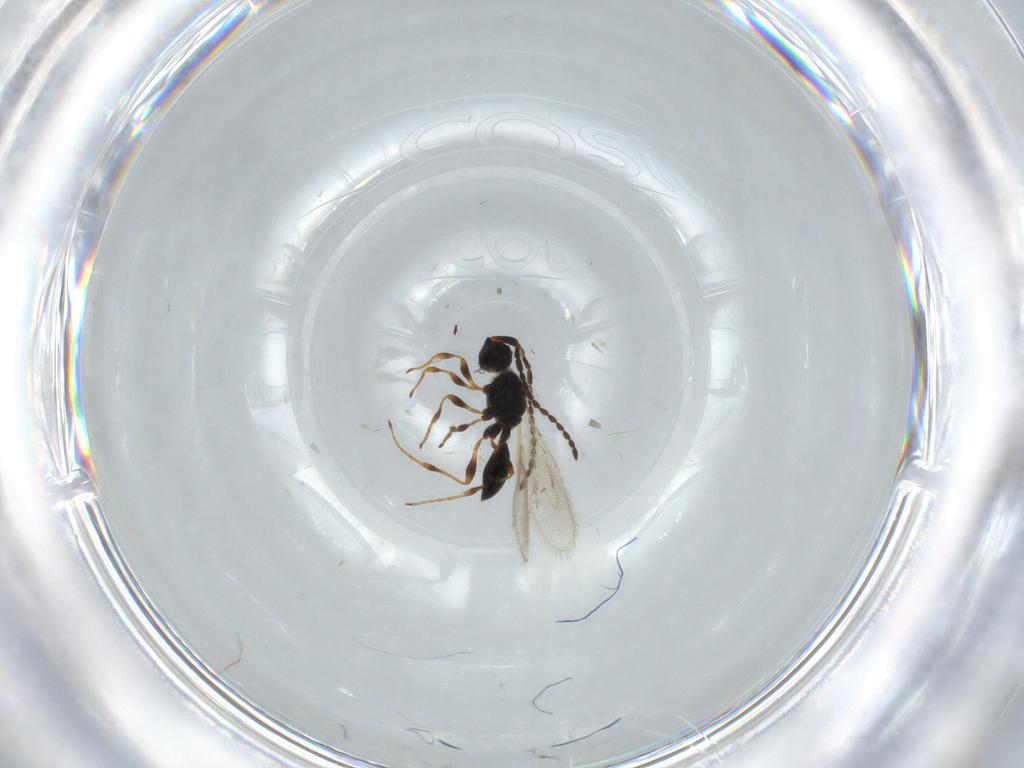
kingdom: Animalia
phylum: Arthropoda
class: Insecta
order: Hymenoptera
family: Diapriidae
